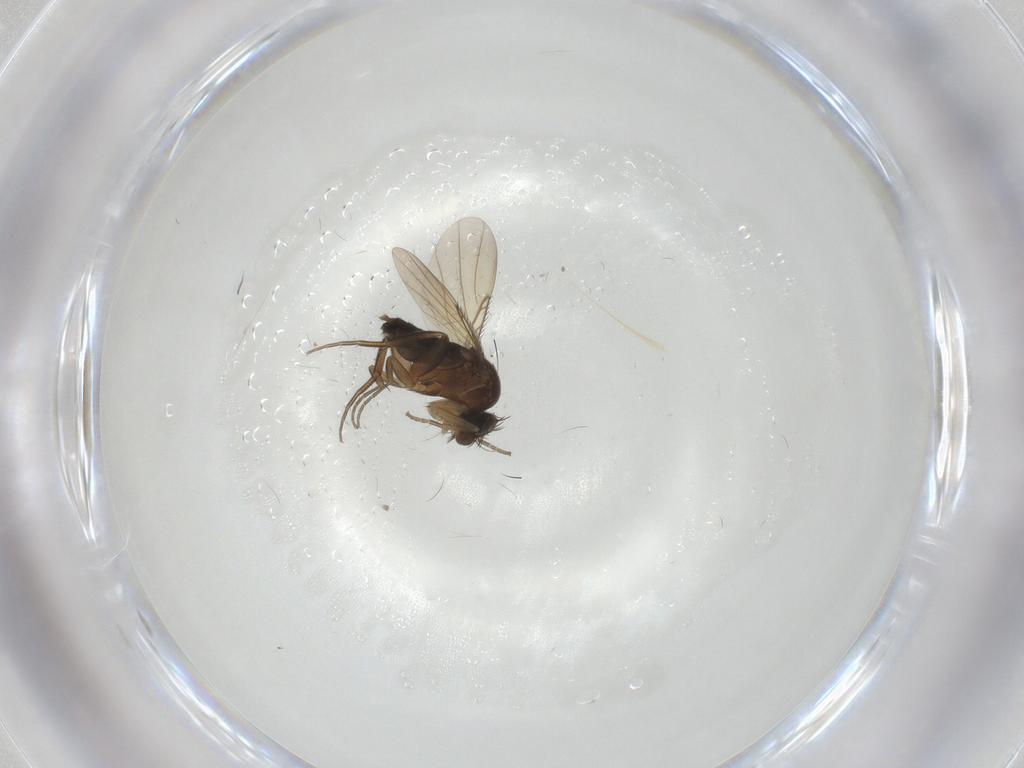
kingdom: Animalia
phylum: Arthropoda
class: Insecta
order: Diptera
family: Phoridae
